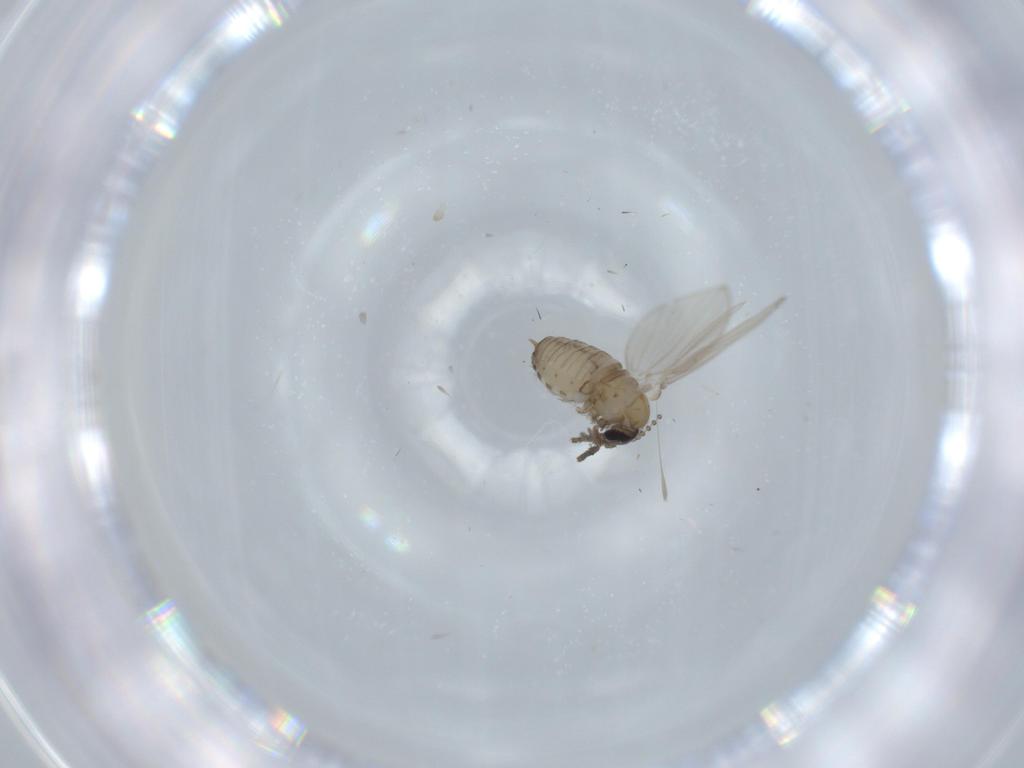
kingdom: Animalia
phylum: Arthropoda
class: Insecta
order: Diptera
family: Psychodidae
